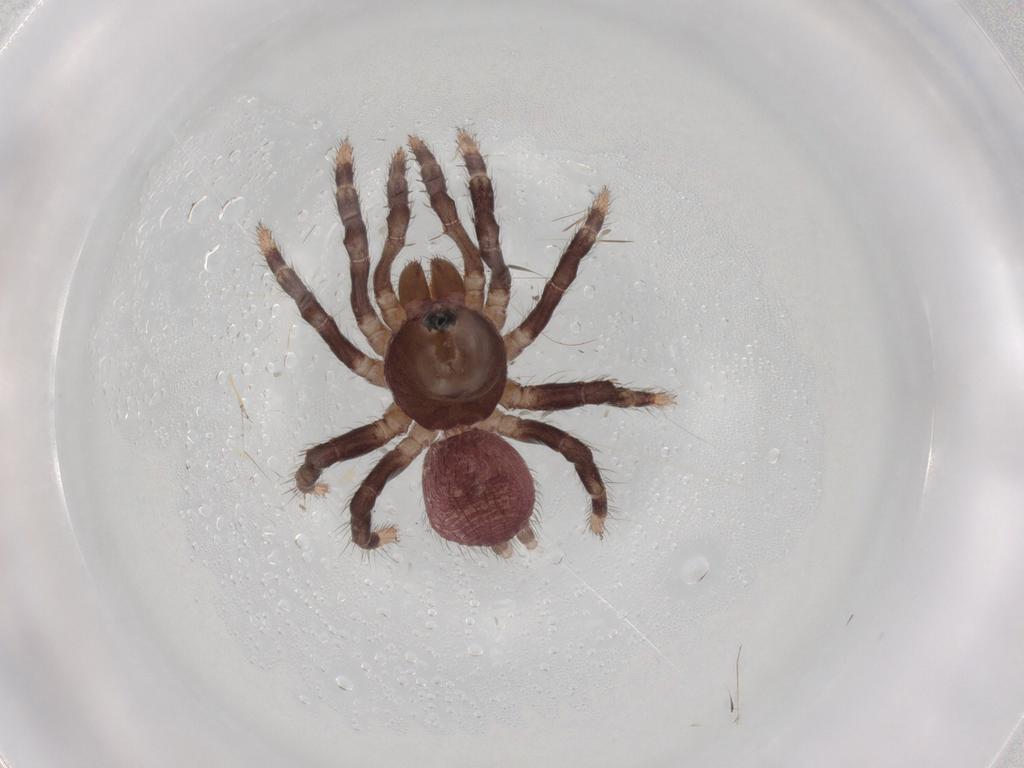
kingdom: Animalia
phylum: Arthropoda
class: Arachnida
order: Araneae
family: Halonoproctidae
